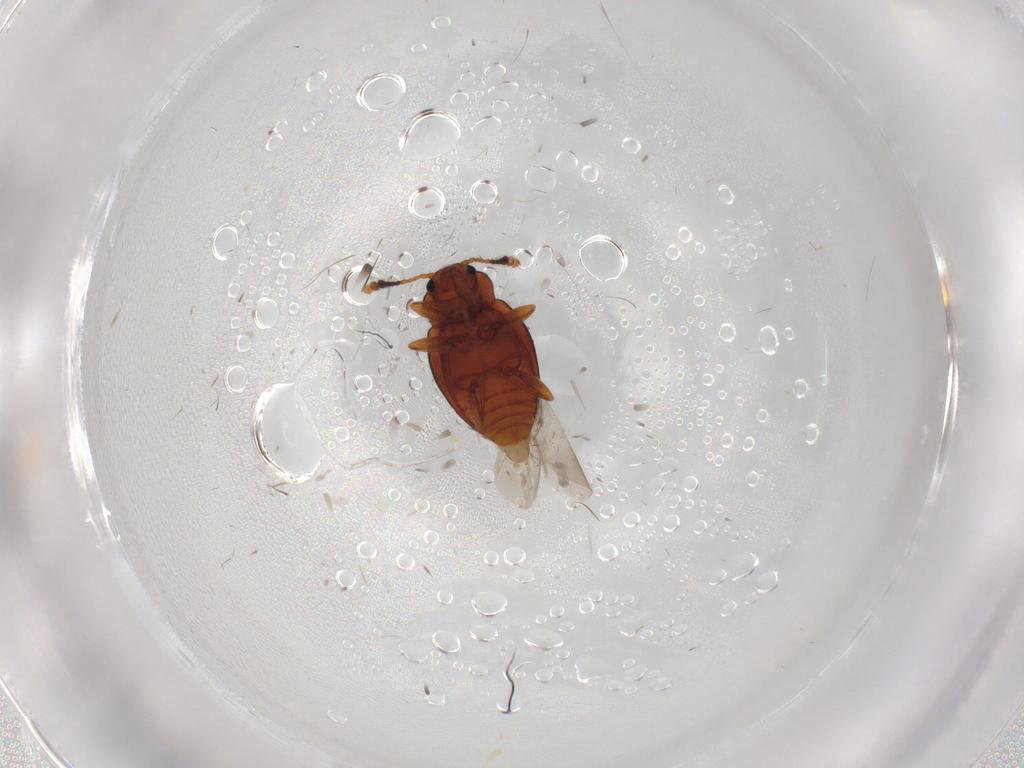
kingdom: Animalia
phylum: Arthropoda
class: Insecta
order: Coleoptera
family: Erotylidae
